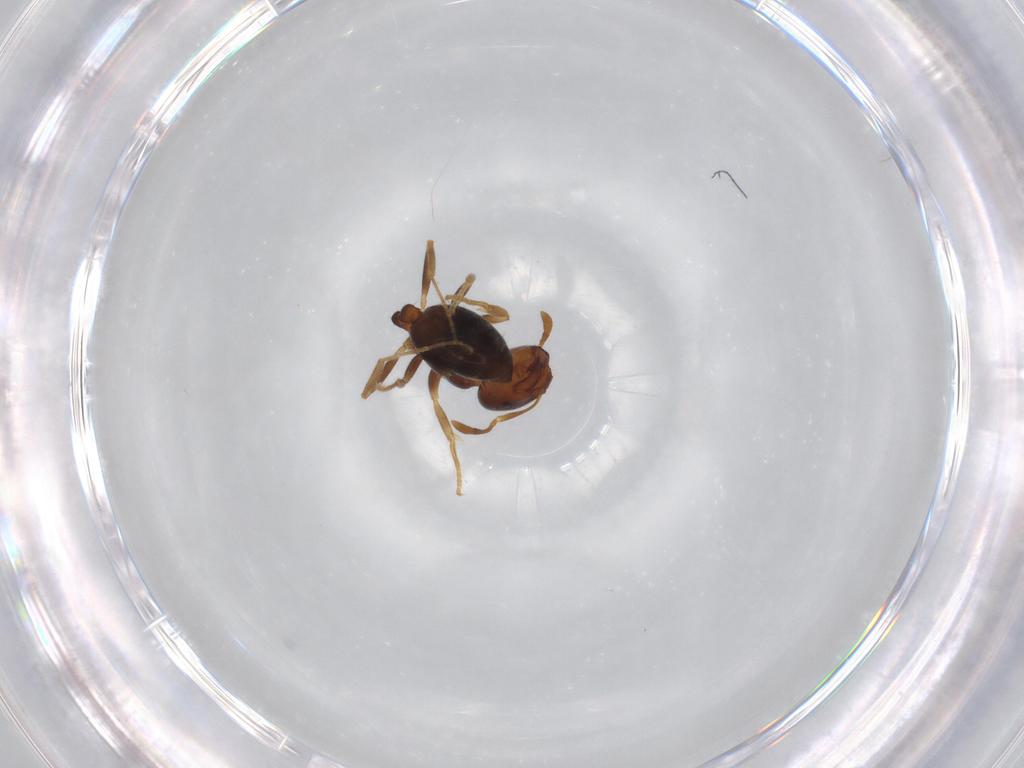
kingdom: Animalia
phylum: Arthropoda
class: Insecta
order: Hymenoptera
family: Formicidae
